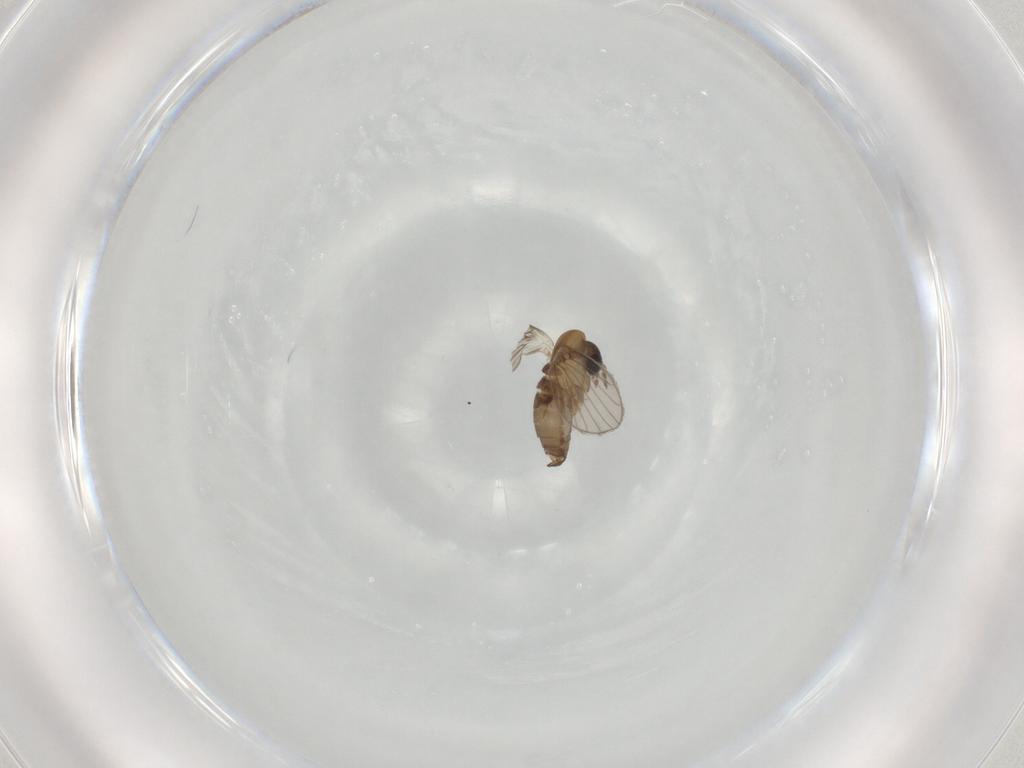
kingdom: Animalia
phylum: Arthropoda
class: Insecta
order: Diptera
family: Psychodidae
